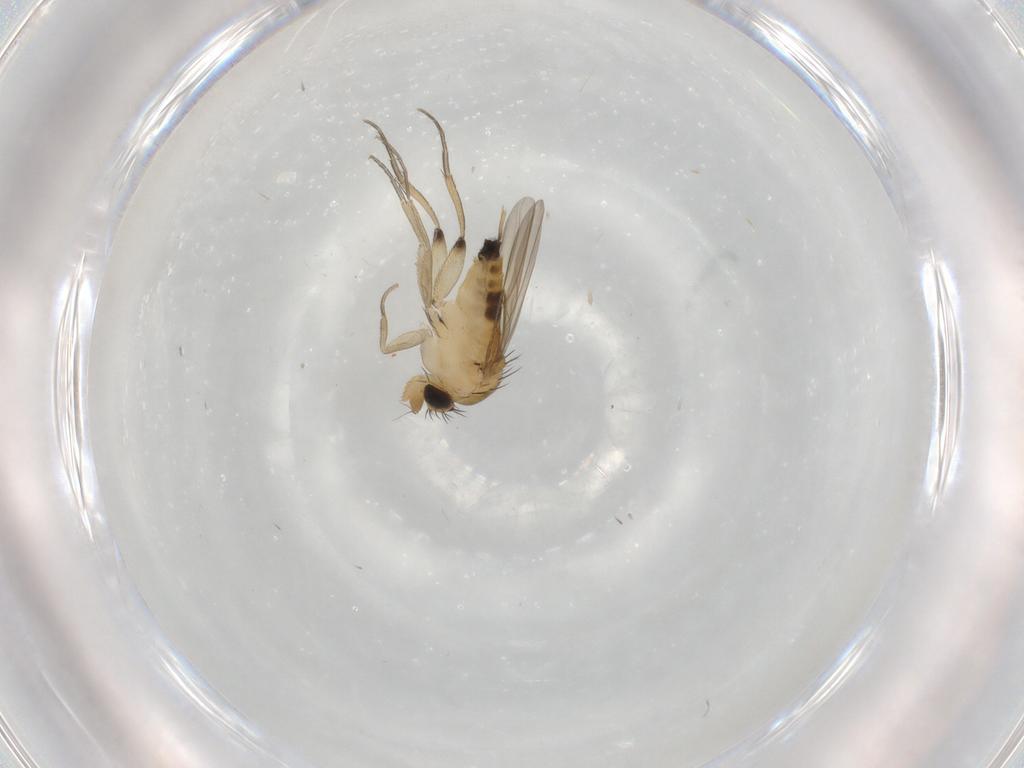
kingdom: Animalia
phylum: Arthropoda
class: Insecta
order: Diptera
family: Phoridae
